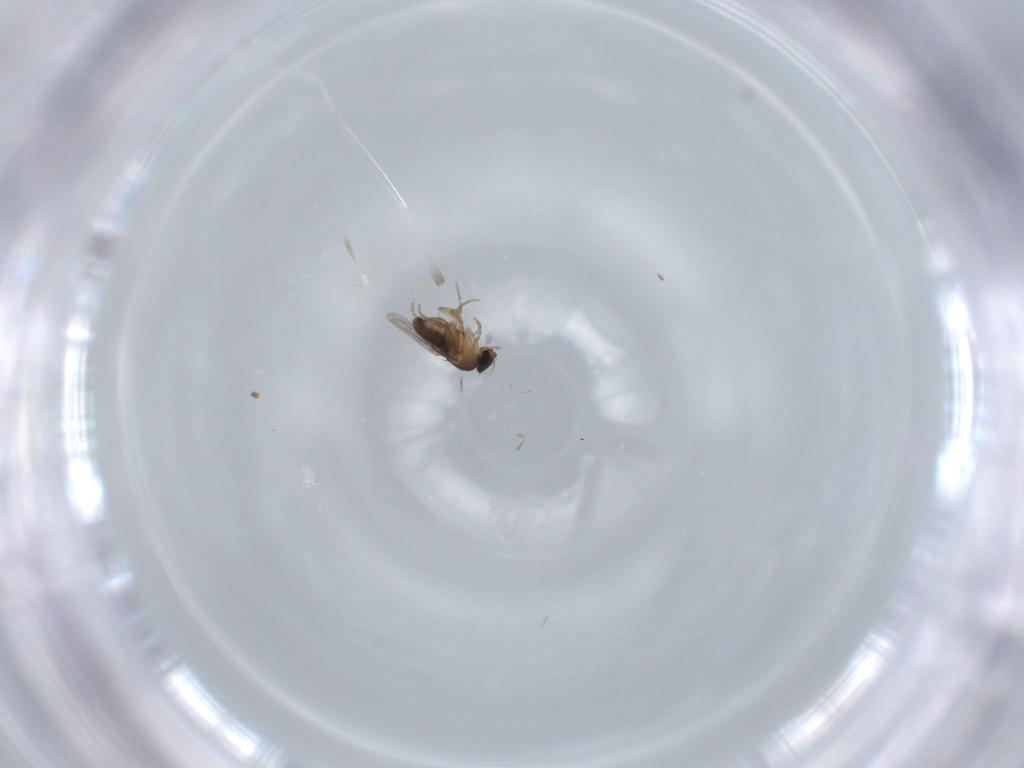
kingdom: Animalia
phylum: Arthropoda
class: Insecta
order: Diptera
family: Phoridae
